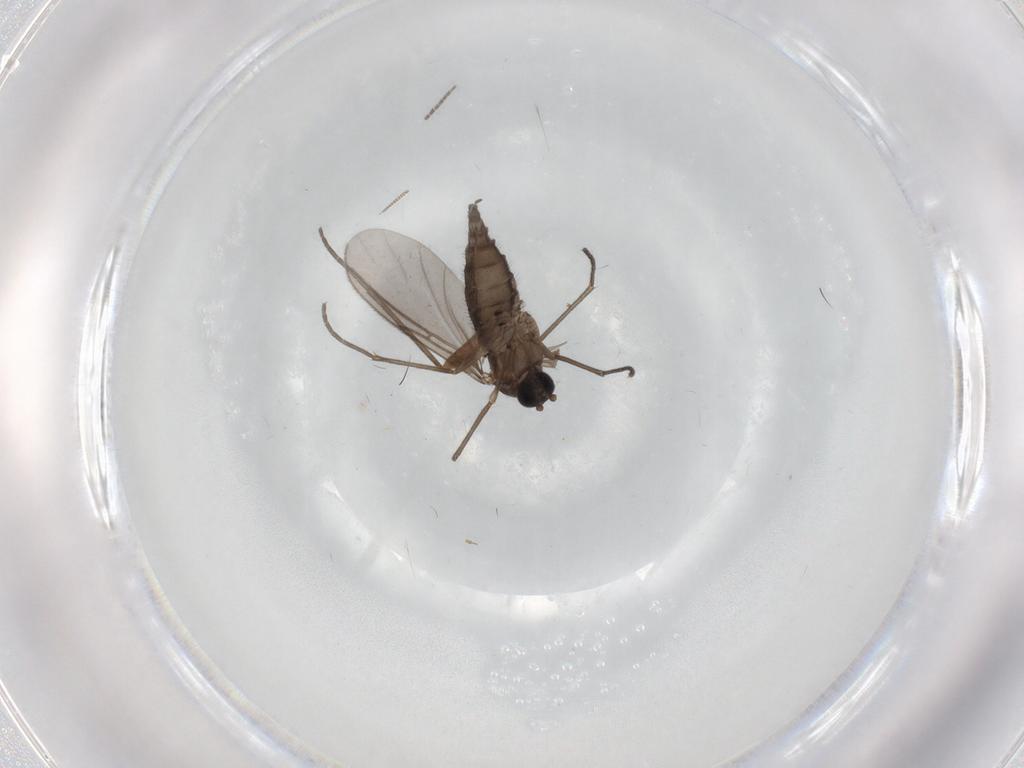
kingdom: Animalia
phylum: Arthropoda
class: Insecta
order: Diptera
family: Sciaridae
